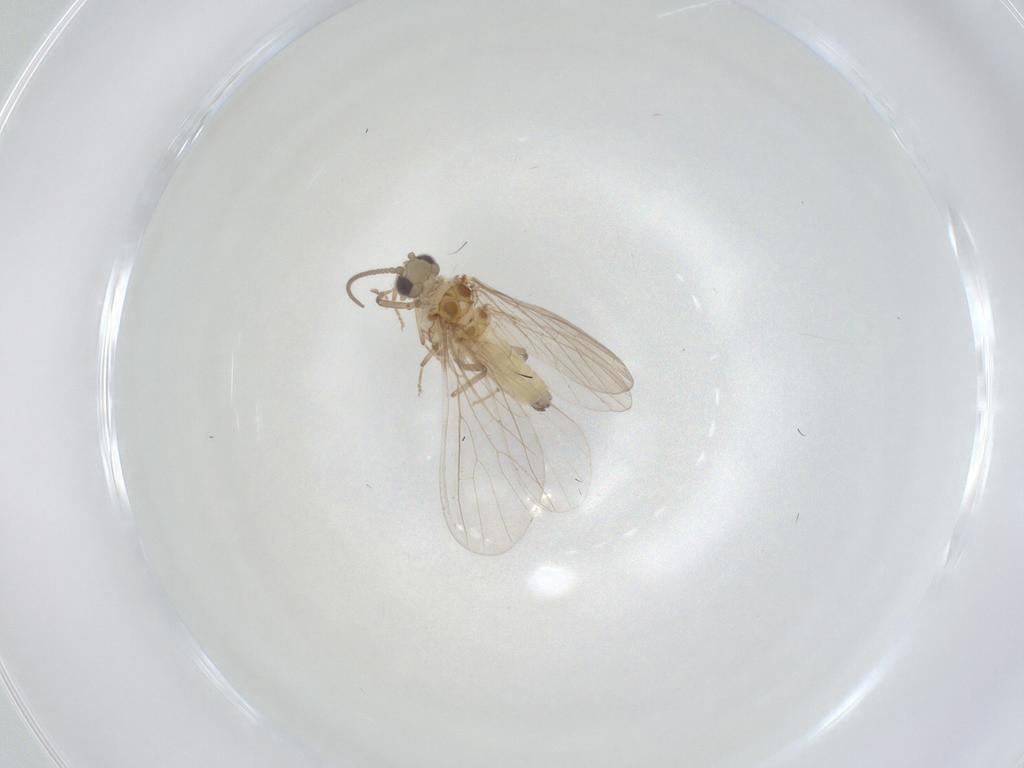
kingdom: Animalia
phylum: Arthropoda
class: Insecta
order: Neuroptera
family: Coniopterygidae
